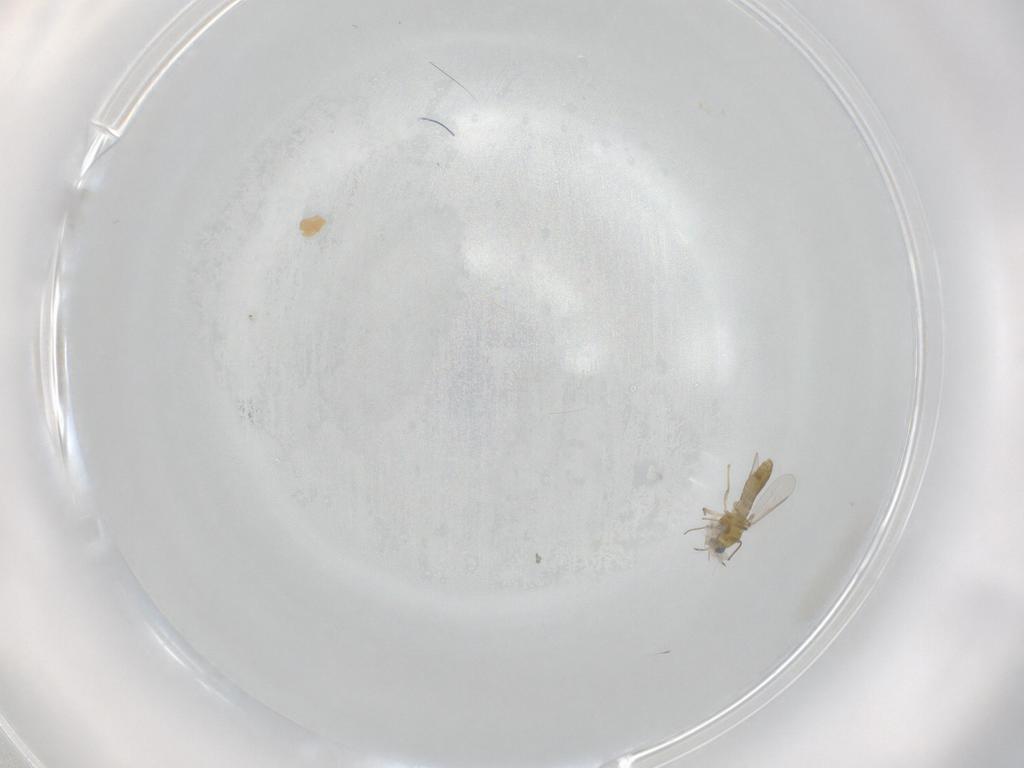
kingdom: Animalia
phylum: Arthropoda
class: Insecta
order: Diptera
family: Chironomidae
